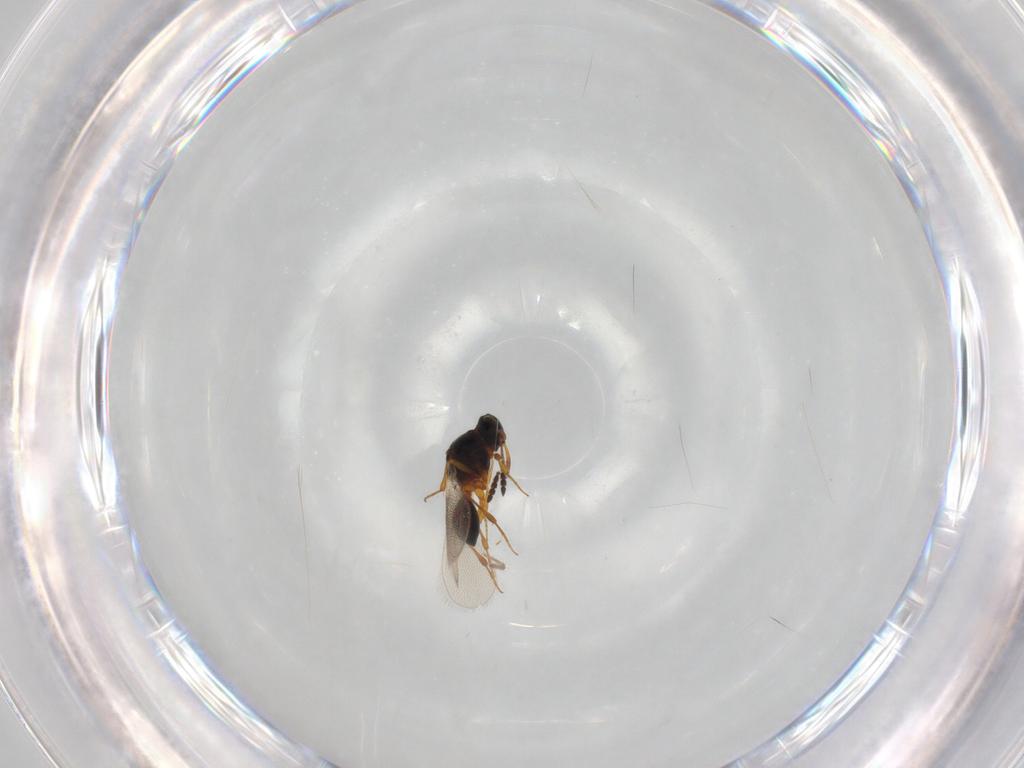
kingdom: Animalia
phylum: Arthropoda
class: Insecta
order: Hymenoptera
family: Platygastridae
